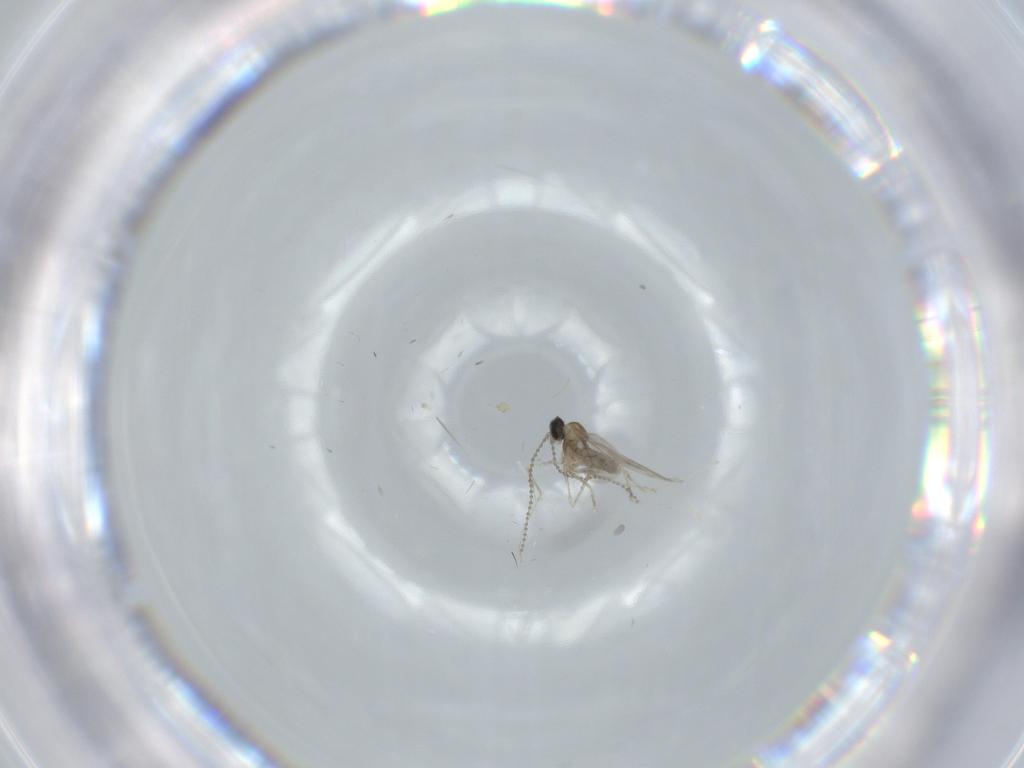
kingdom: Animalia
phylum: Arthropoda
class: Insecta
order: Diptera
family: Cecidomyiidae
